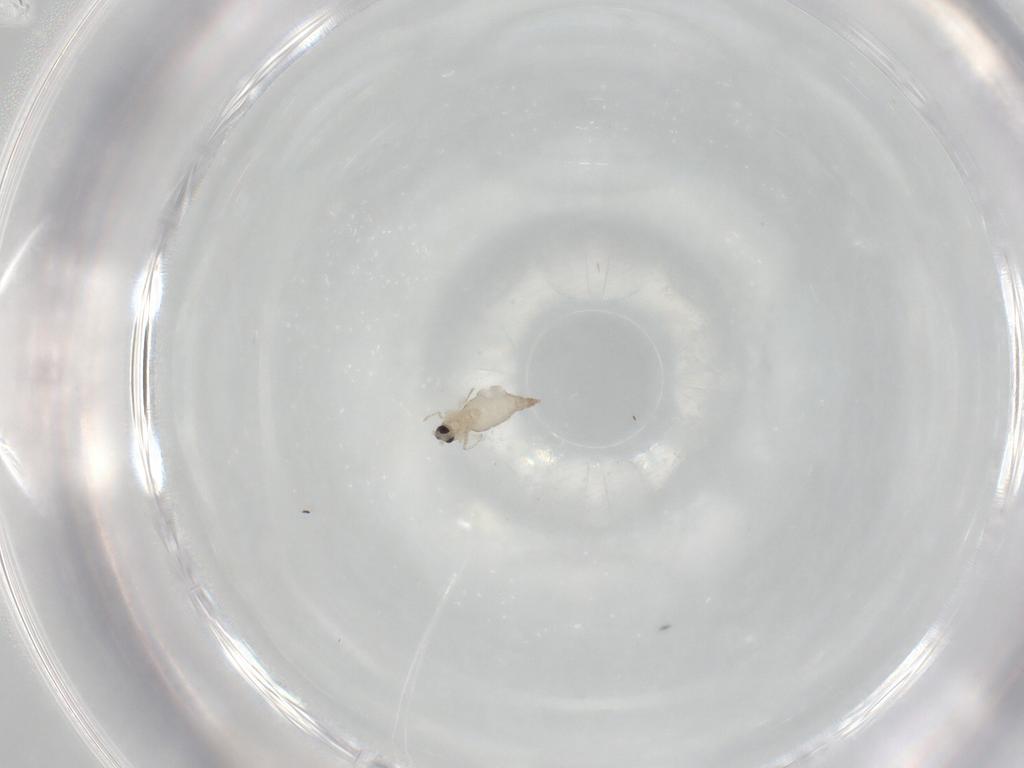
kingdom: Animalia
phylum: Arthropoda
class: Insecta
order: Diptera
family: Cecidomyiidae
